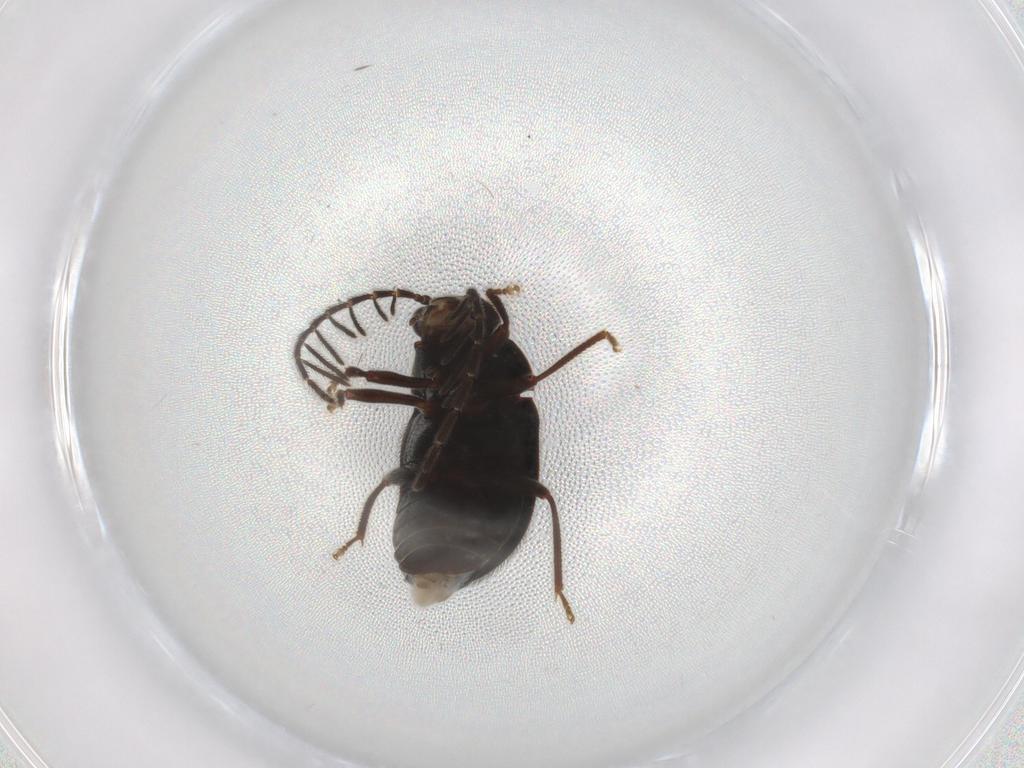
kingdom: Animalia
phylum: Arthropoda
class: Insecta
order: Coleoptera
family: Ptilodactylidae
